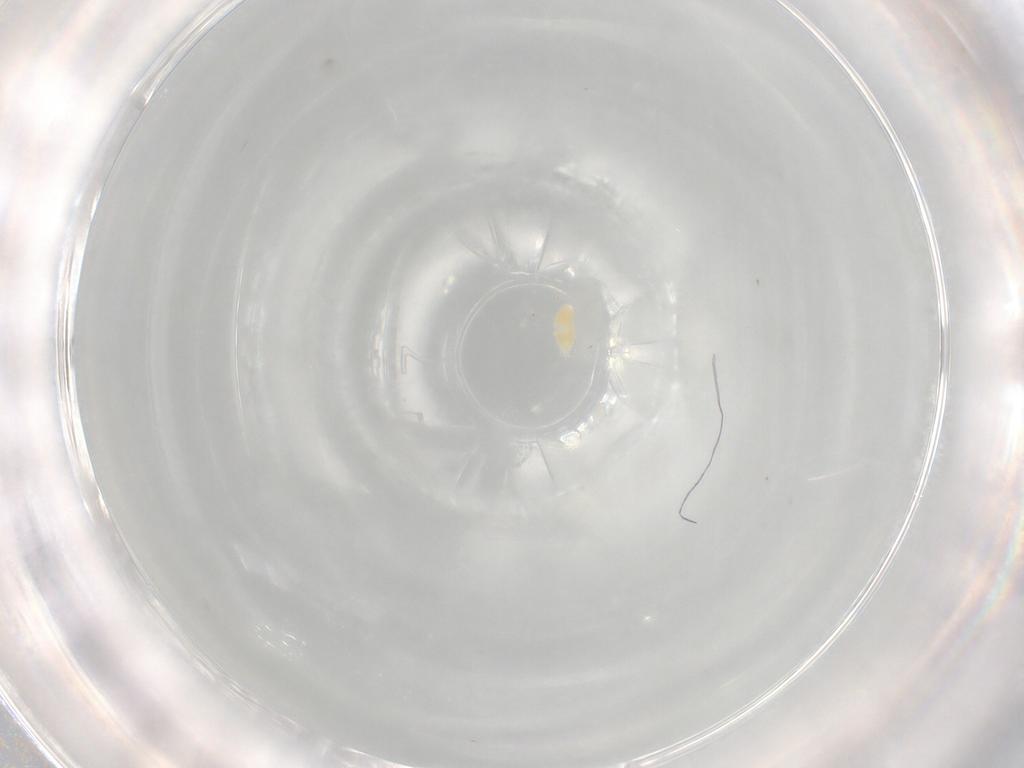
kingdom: Animalia
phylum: Arthropoda
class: Arachnida
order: Trombidiformes
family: Eupodidae
